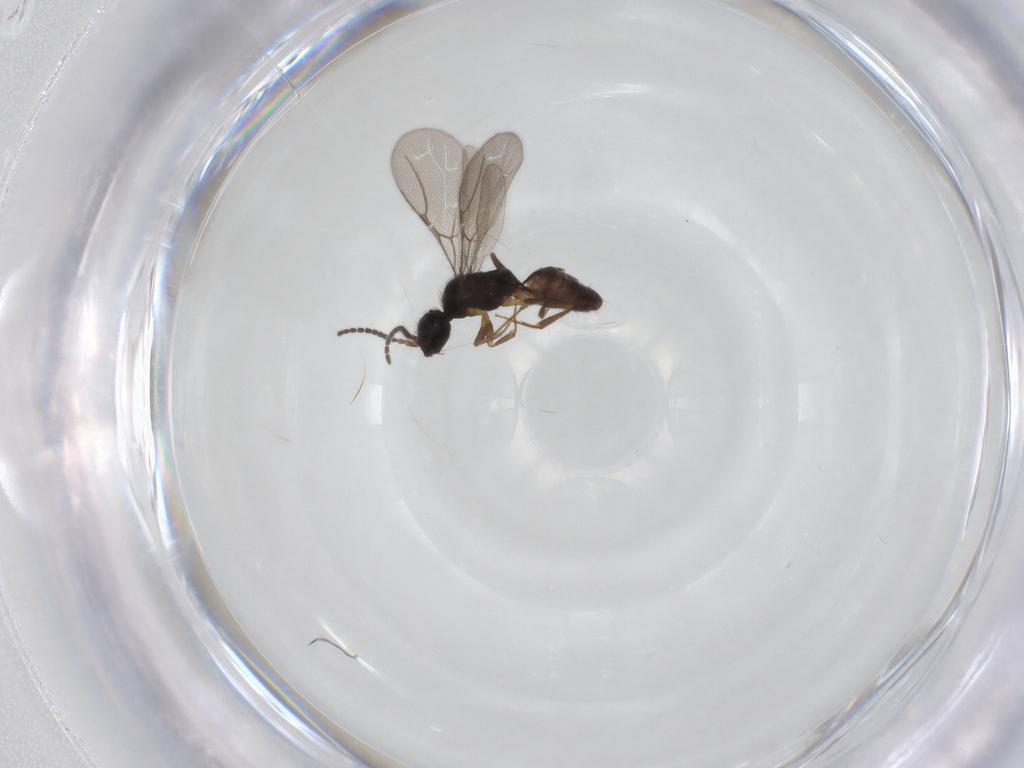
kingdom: Animalia
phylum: Arthropoda
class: Insecta
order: Hymenoptera
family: Bethylidae
